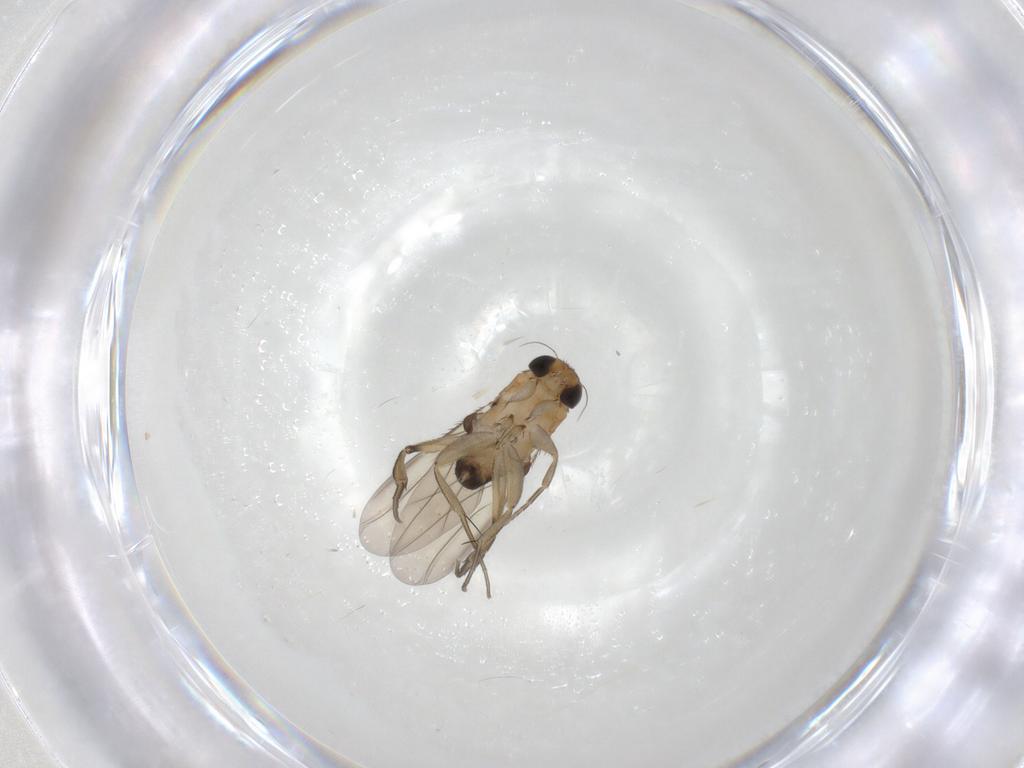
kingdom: Animalia
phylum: Arthropoda
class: Insecta
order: Diptera
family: Phoridae
